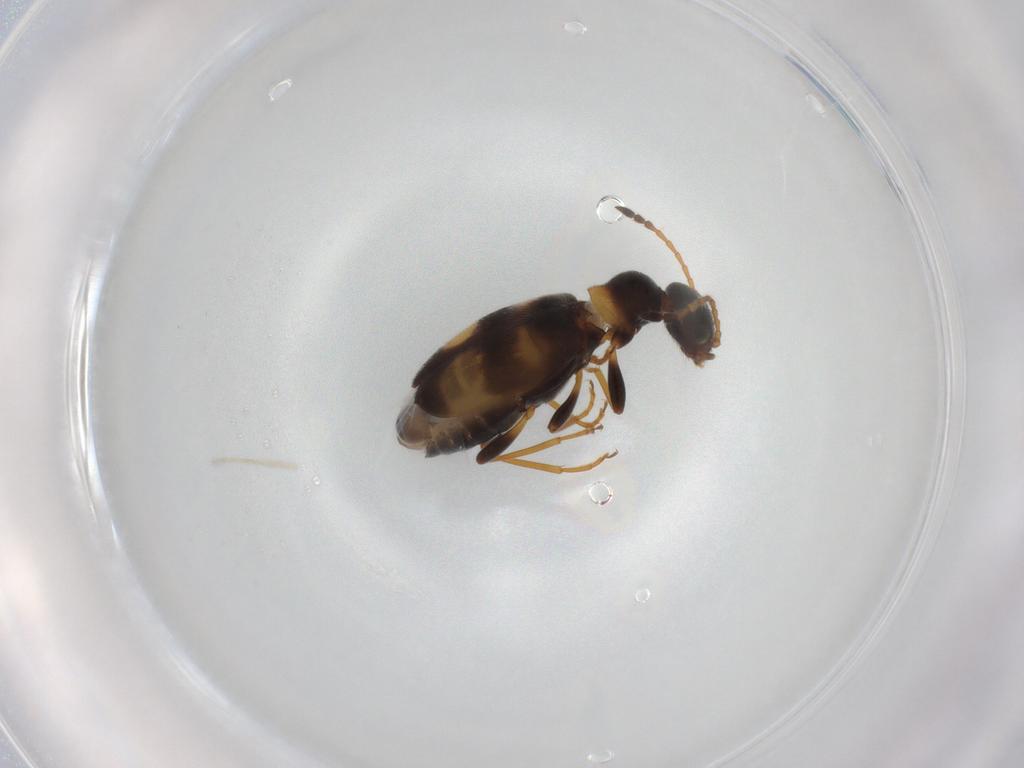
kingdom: Animalia
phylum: Arthropoda
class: Insecta
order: Coleoptera
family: Anthicidae
